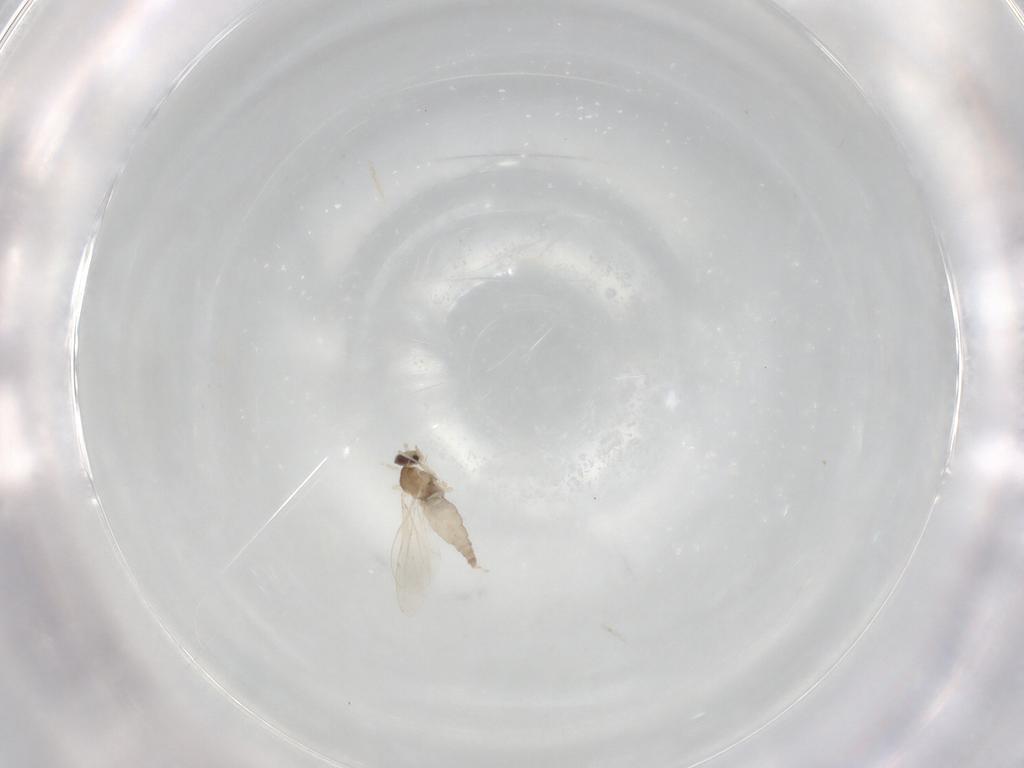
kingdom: Animalia
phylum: Arthropoda
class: Insecta
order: Diptera
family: Cecidomyiidae
